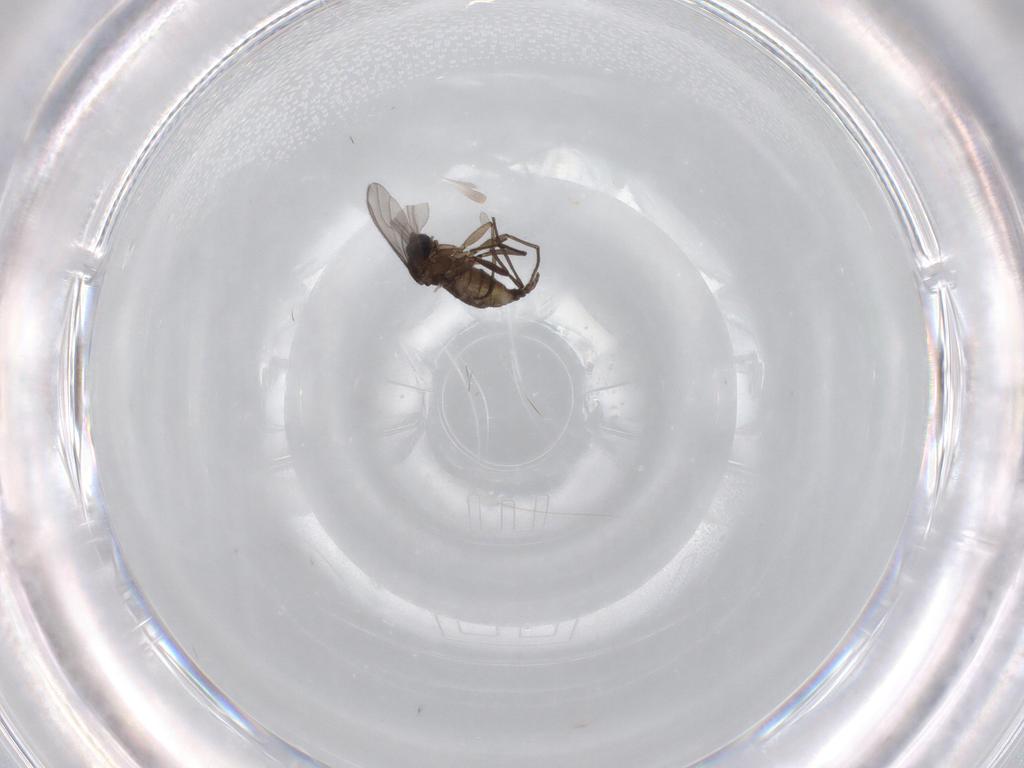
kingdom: Animalia
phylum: Arthropoda
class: Insecta
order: Diptera
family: Sciaridae
